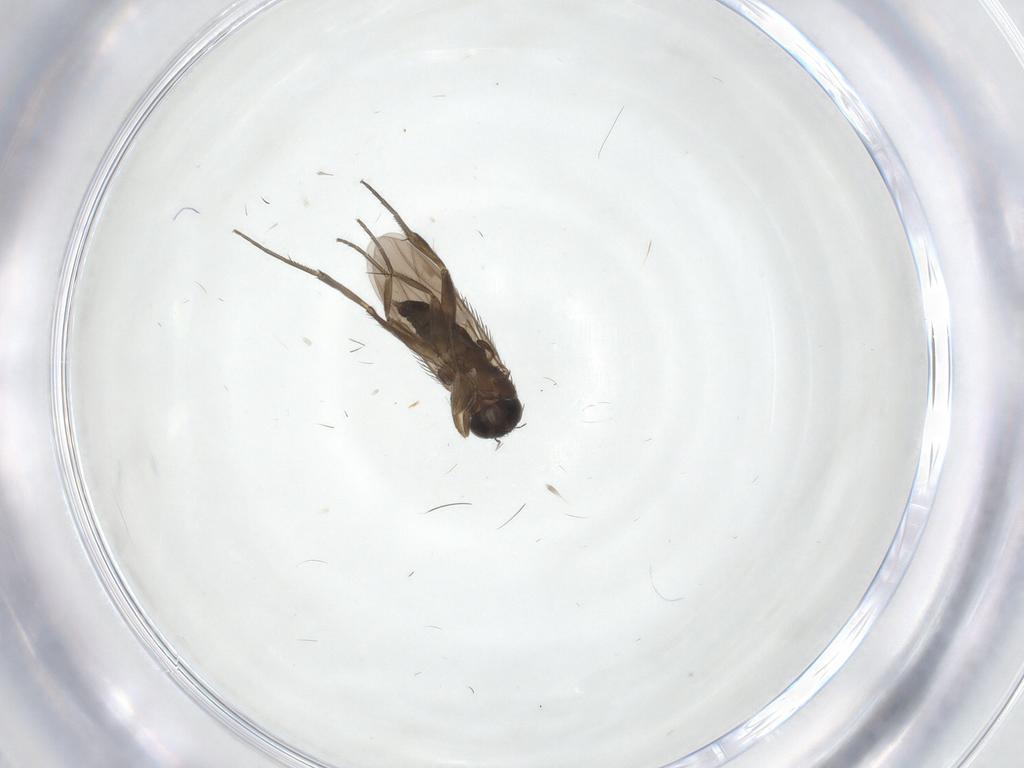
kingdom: Animalia
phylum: Arthropoda
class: Insecta
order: Diptera
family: Phoridae
